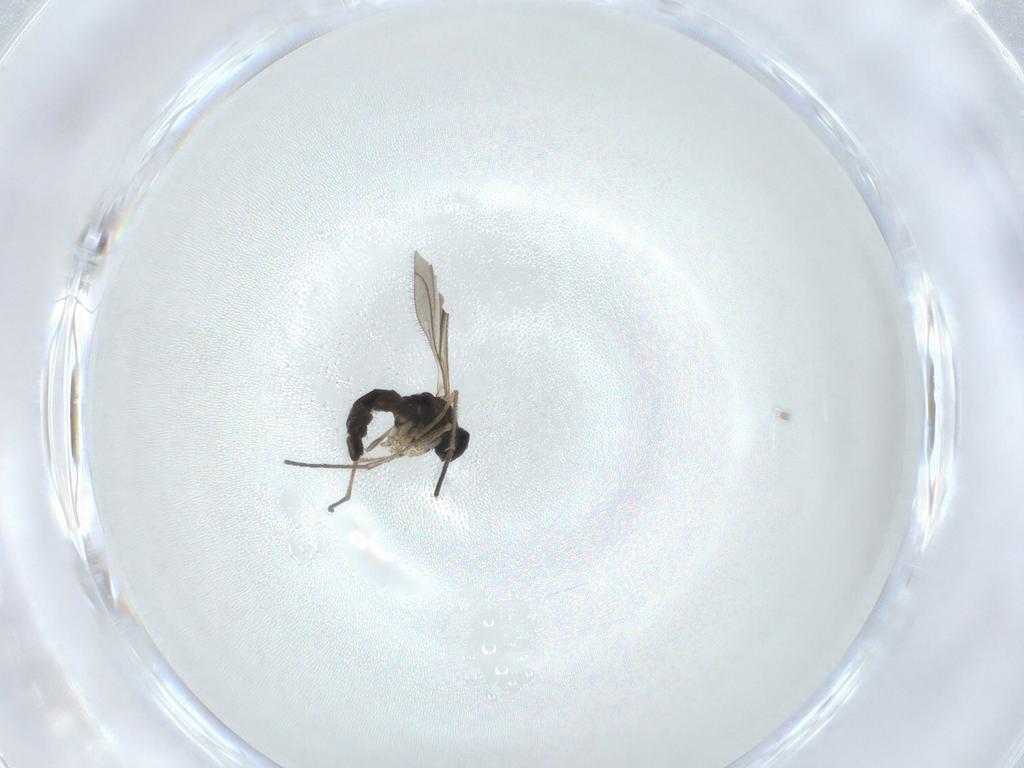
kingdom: Animalia
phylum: Arthropoda
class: Insecta
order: Diptera
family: Sciaridae
